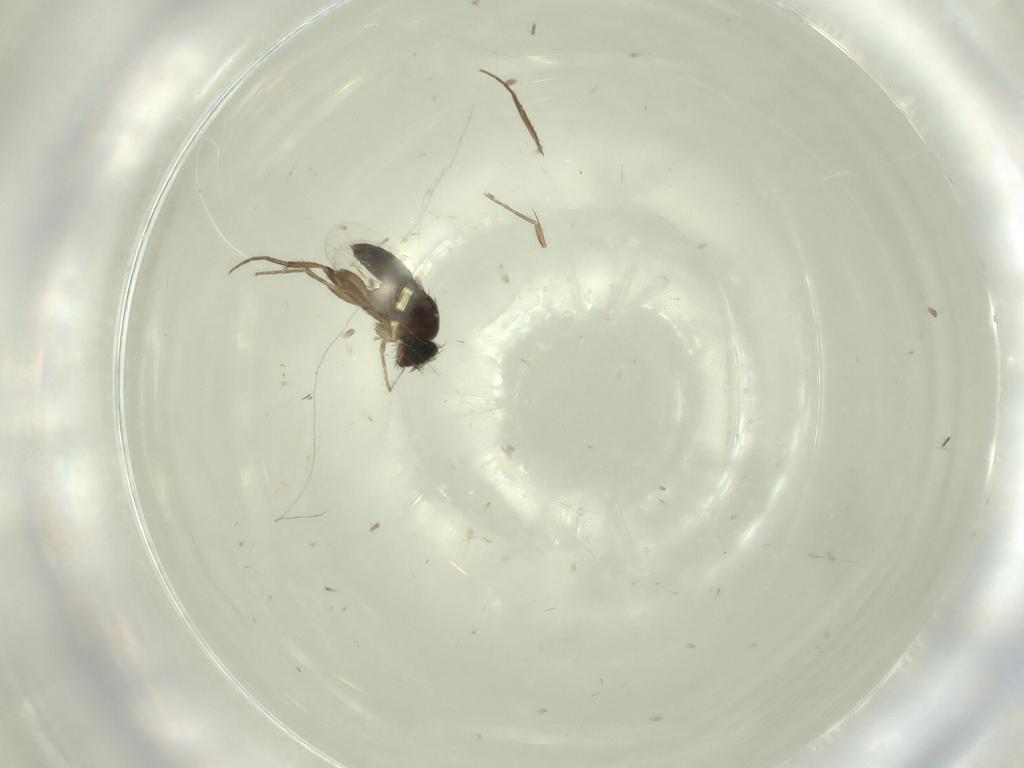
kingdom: Animalia
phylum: Arthropoda
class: Insecta
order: Diptera
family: Phoridae
